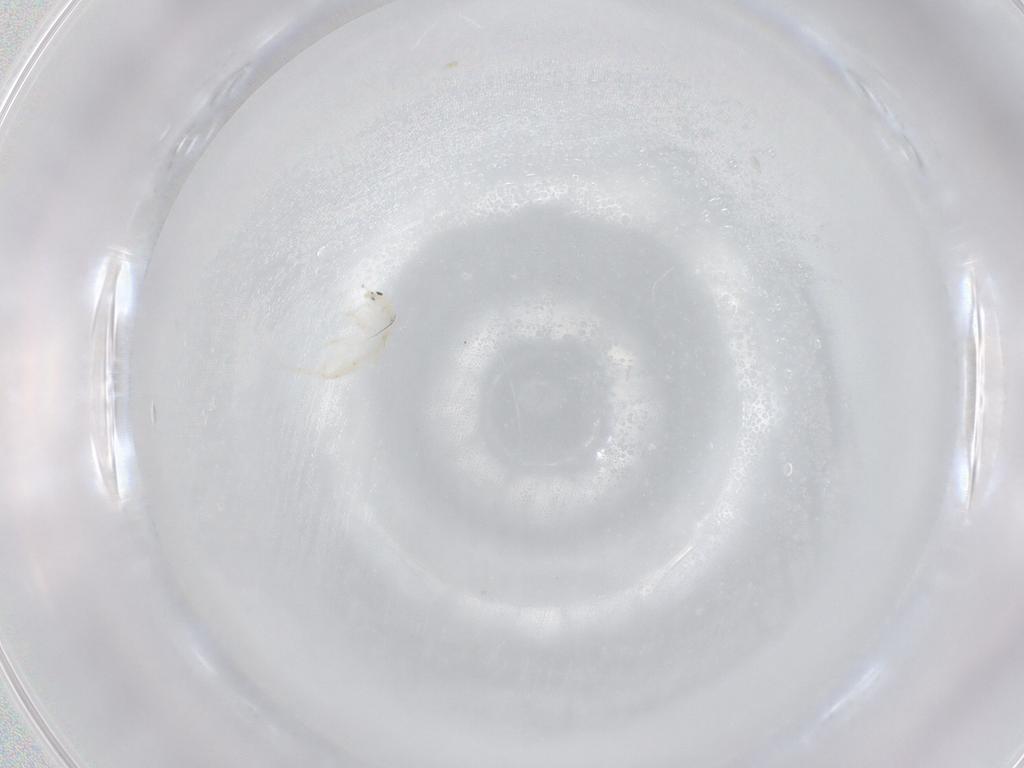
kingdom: Animalia
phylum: Arthropoda
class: Collembola
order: Entomobryomorpha
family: Entomobryidae
